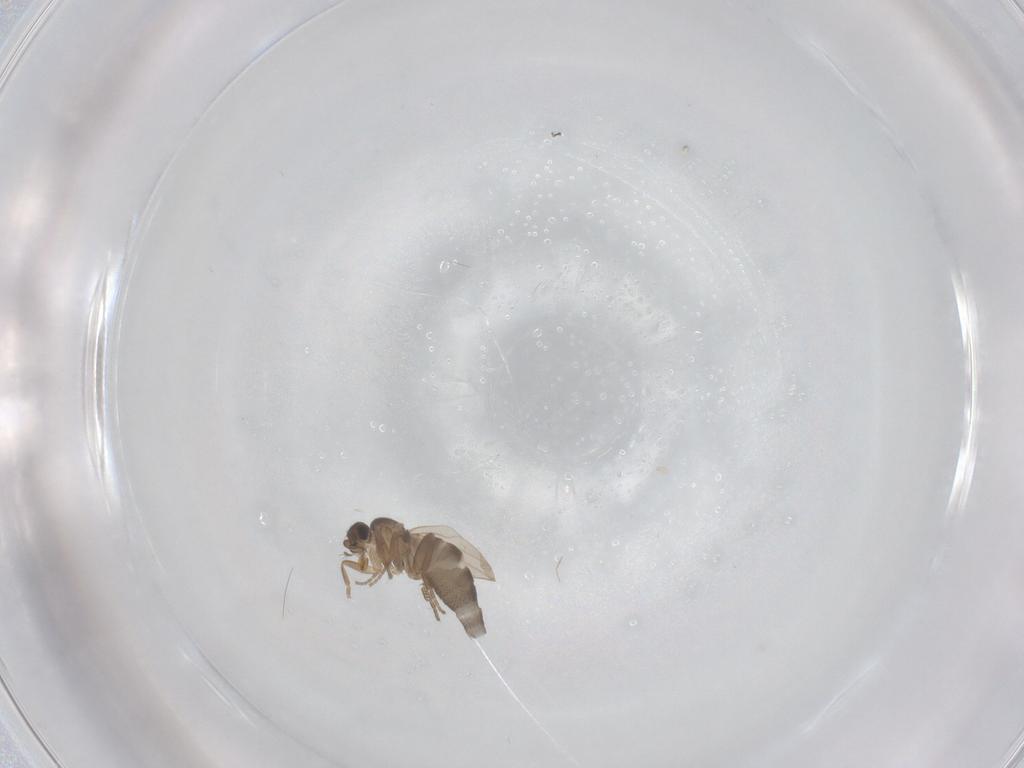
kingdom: Animalia
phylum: Arthropoda
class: Insecta
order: Diptera
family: Phoridae
